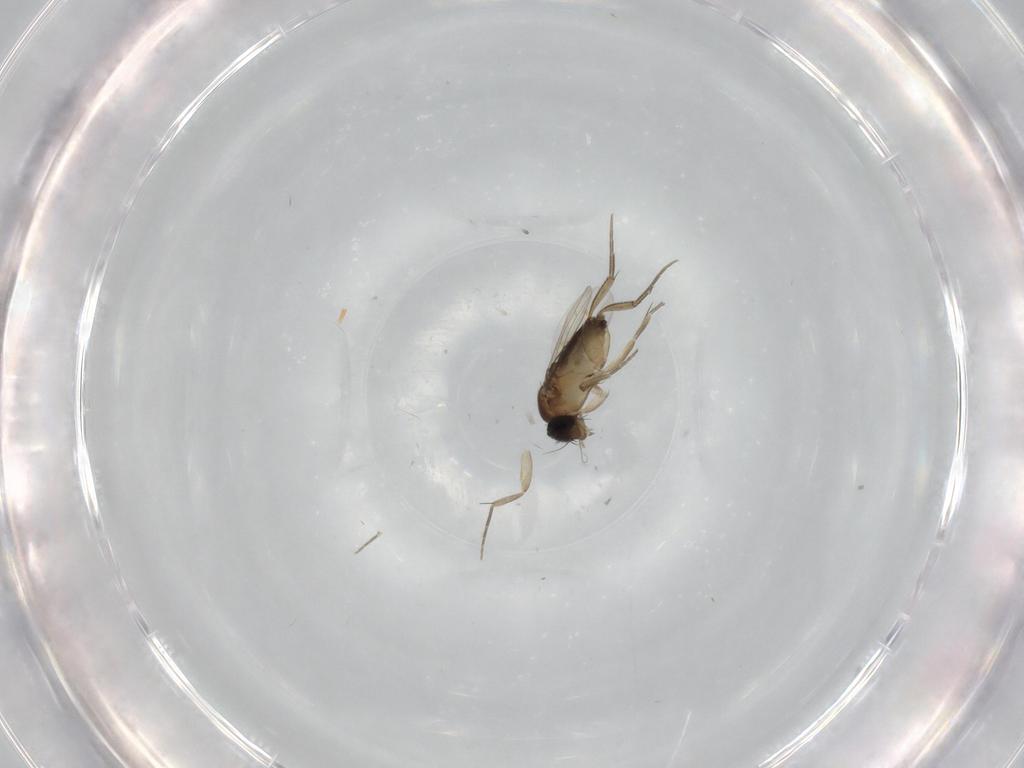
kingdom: Animalia
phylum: Arthropoda
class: Insecta
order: Diptera
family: Phoridae
